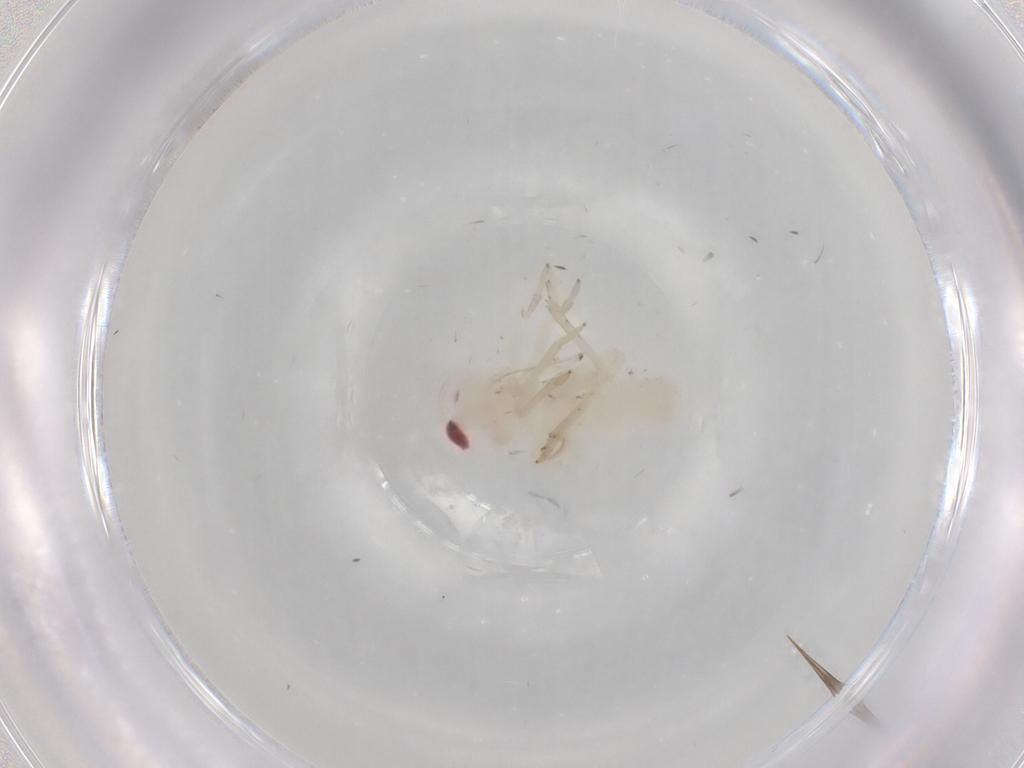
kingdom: Animalia
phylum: Arthropoda
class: Insecta
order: Hemiptera
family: Tropiduchidae
